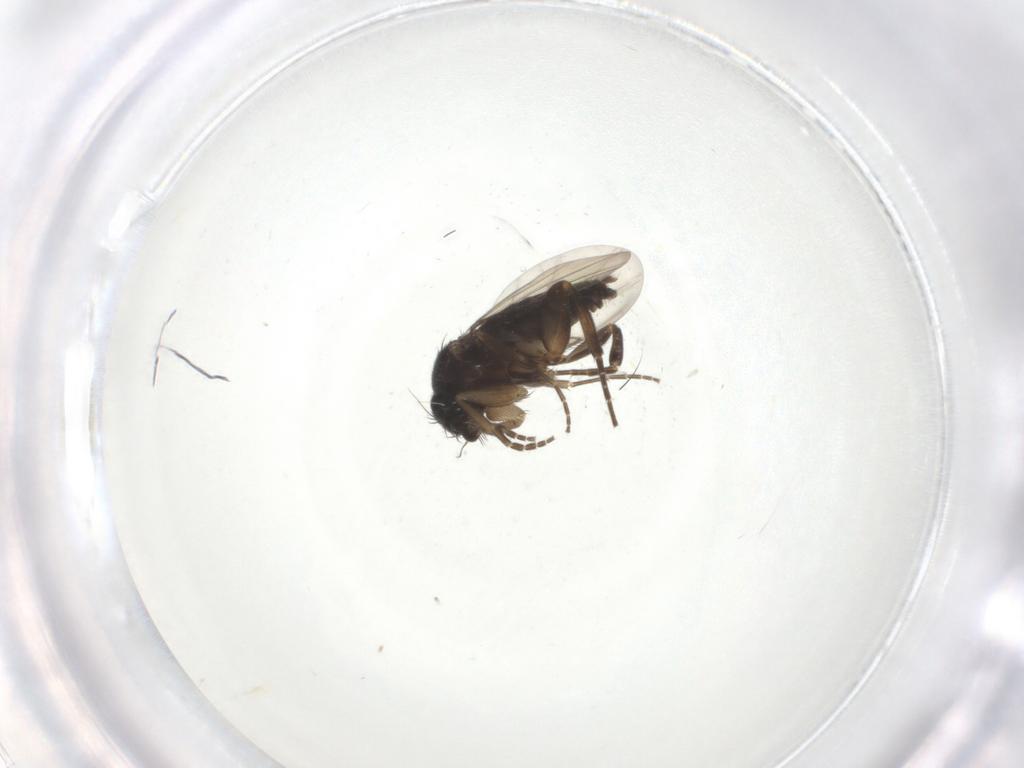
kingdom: Animalia
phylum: Arthropoda
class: Insecta
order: Diptera
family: Phoridae
